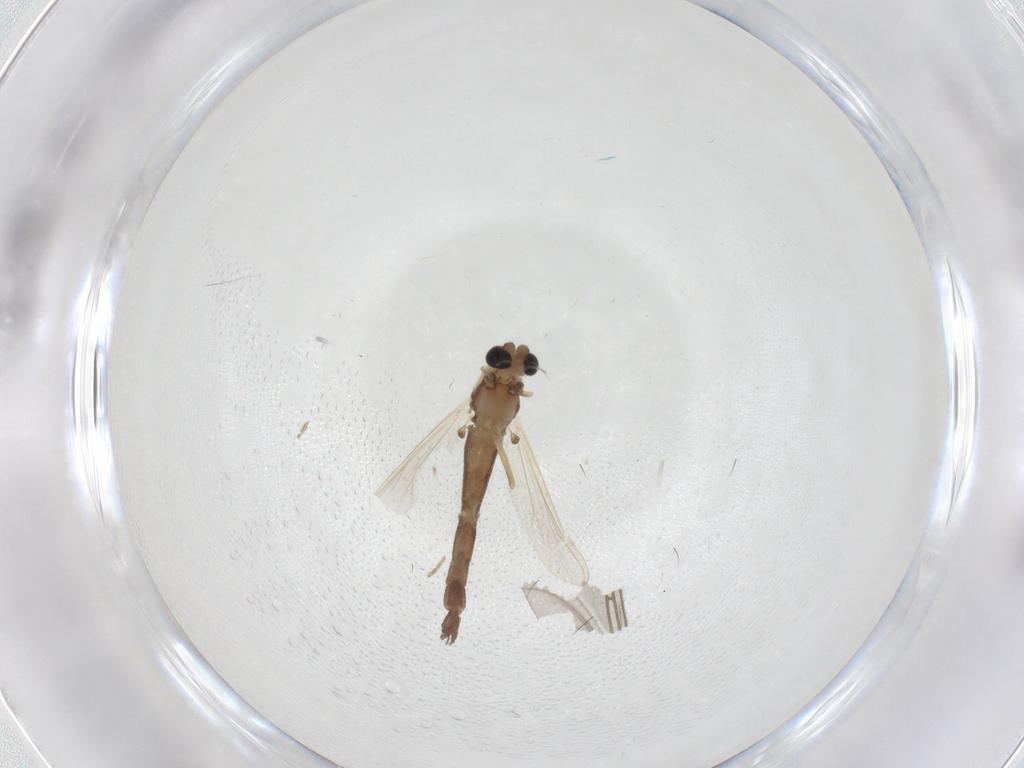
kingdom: Animalia
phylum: Arthropoda
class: Insecta
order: Diptera
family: Chironomidae
